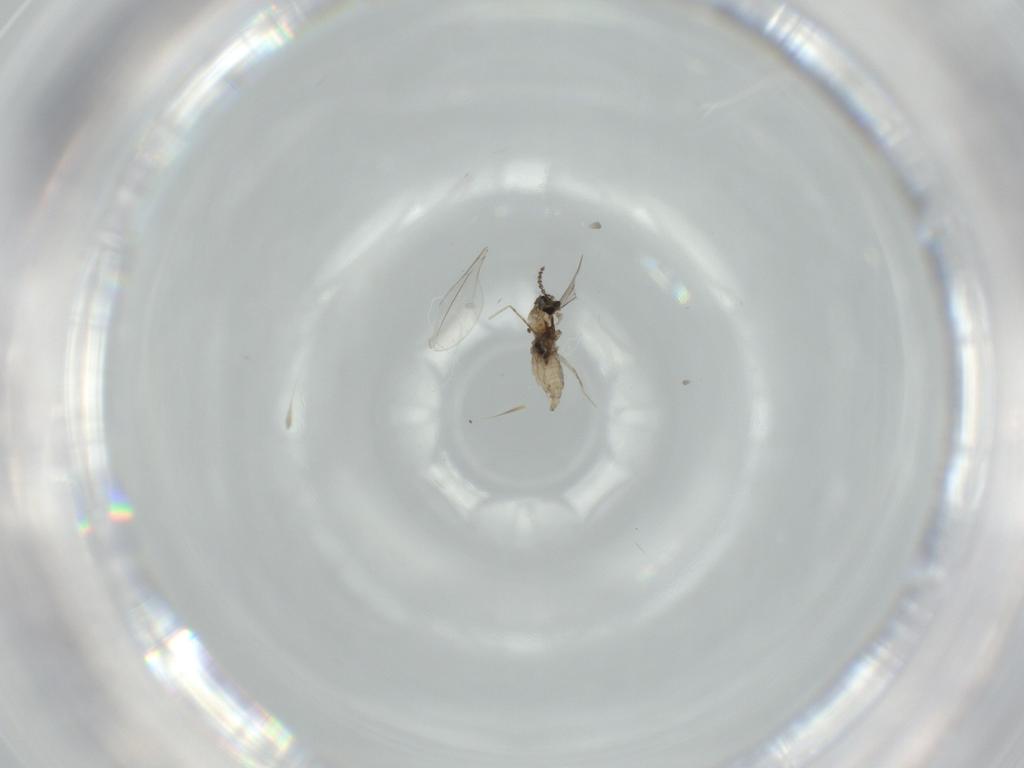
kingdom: Animalia
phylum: Arthropoda
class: Insecta
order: Diptera
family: Cecidomyiidae
